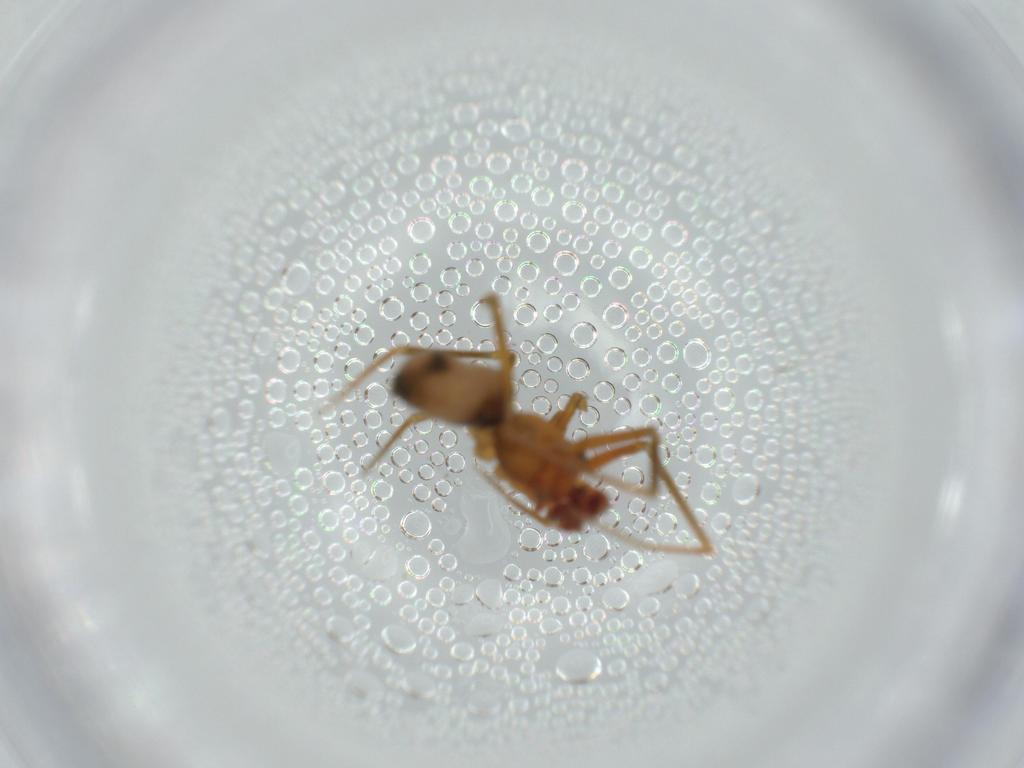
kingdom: Animalia
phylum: Arthropoda
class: Arachnida
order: Araneae
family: Linyphiidae
